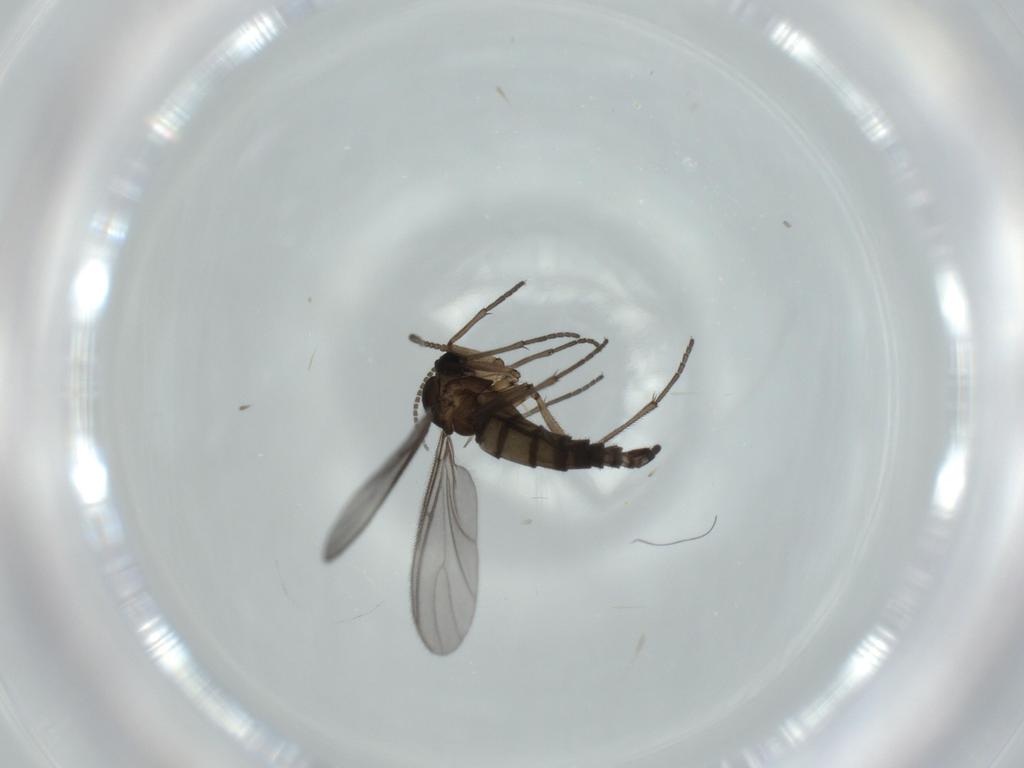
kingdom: Animalia
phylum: Arthropoda
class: Insecta
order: Diptera
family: Sciaridae
